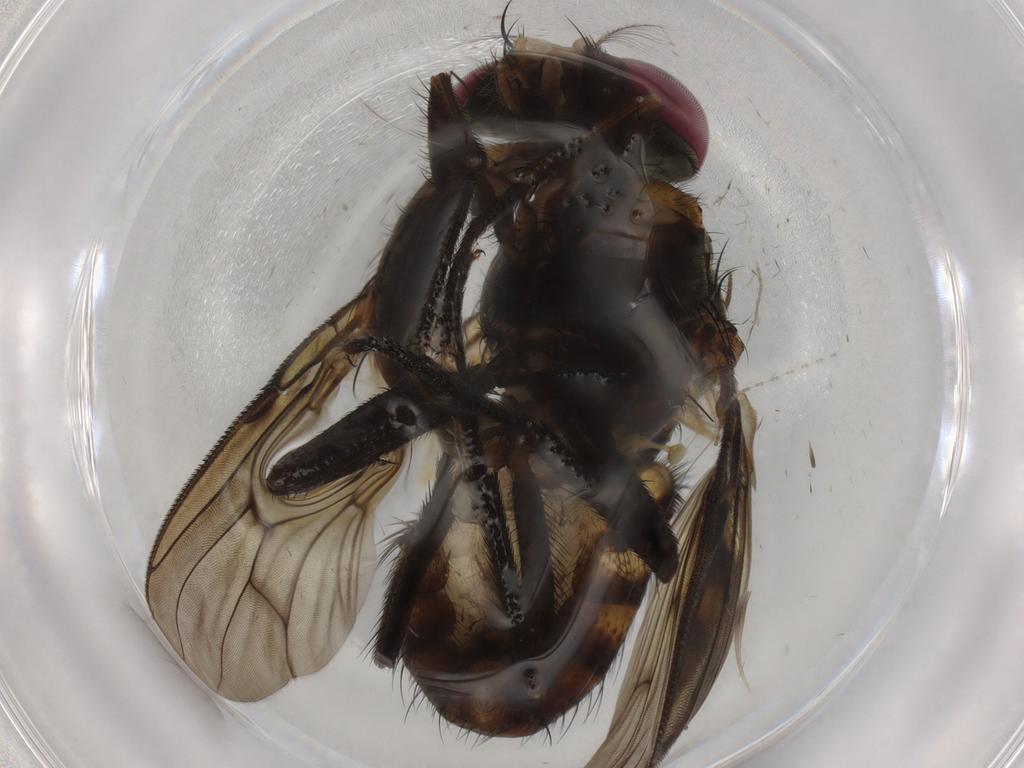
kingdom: Animalia
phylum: Arthropoda
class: Insecta
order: Diptera
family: Muscidae
